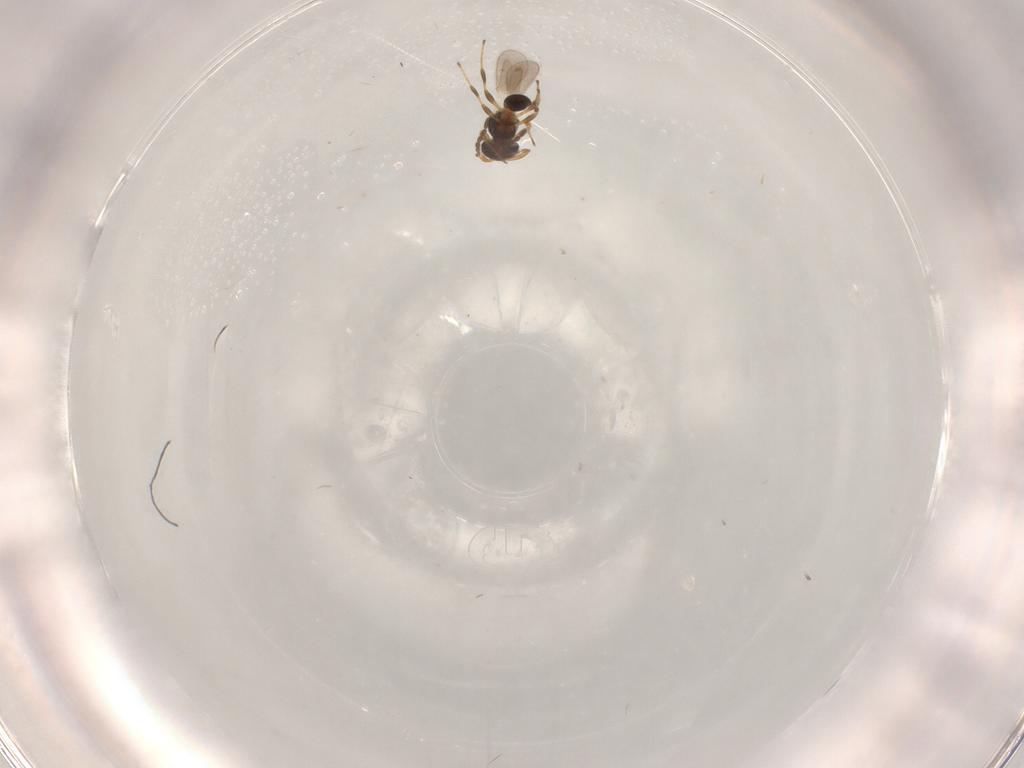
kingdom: Animalia
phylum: Arthropoda
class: Insecta
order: Hymenoptera
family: Platygastridae
